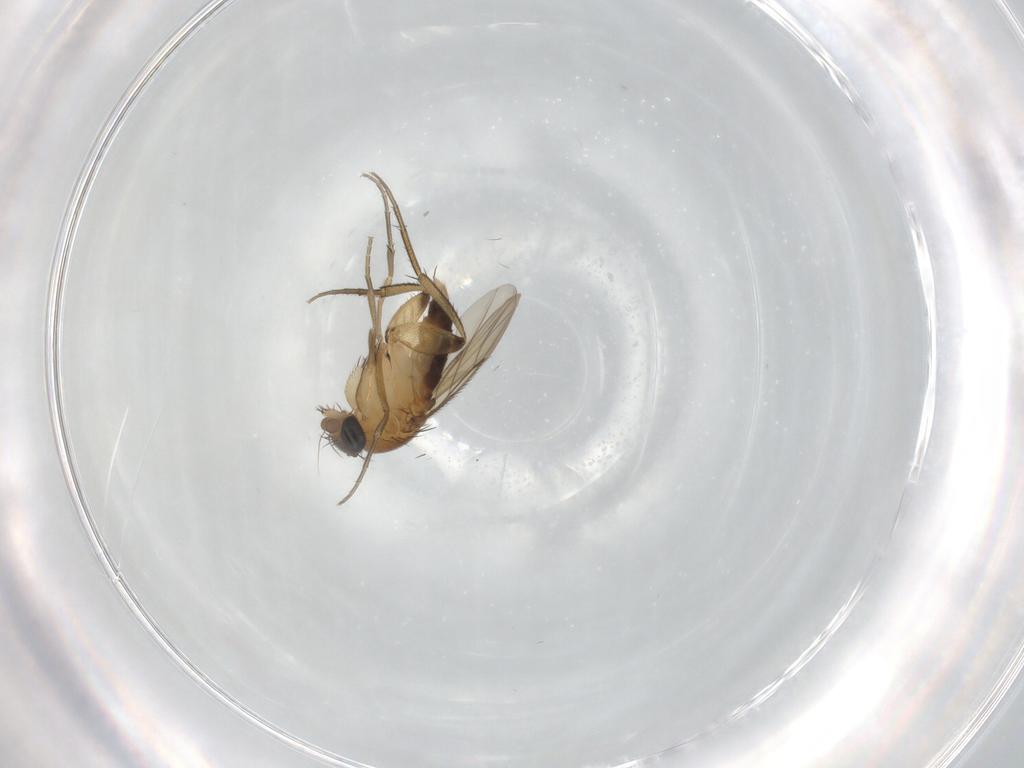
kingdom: Animalia
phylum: Arthropoda
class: Insecta
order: Diptera
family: Phoridae
